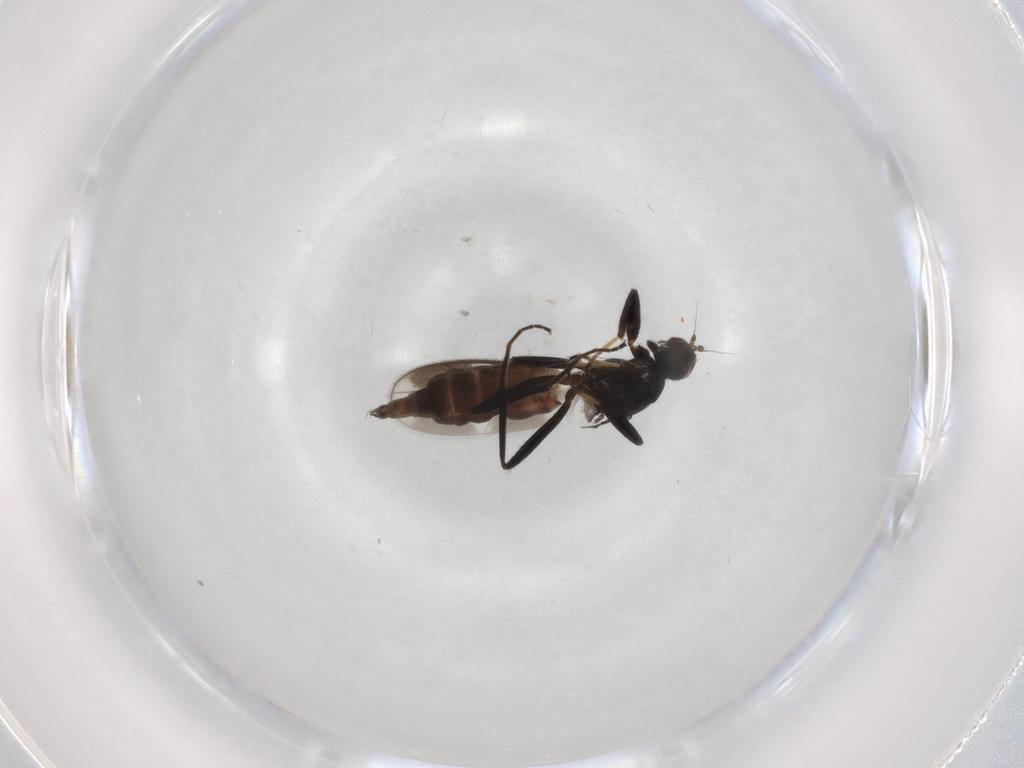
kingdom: Animalia
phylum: Arthropoda
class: Insecta
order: Diptera
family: Hybotidae
